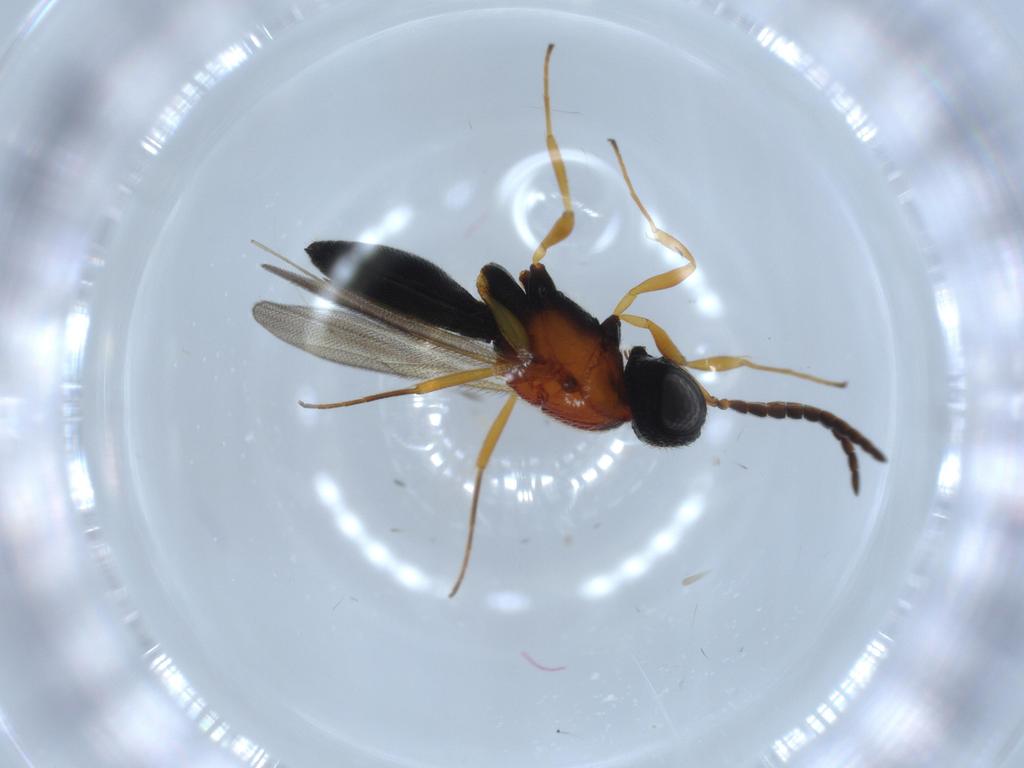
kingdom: Animalia
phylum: Arthropoda
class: Insecta
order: Hymenoptera
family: Scelionidae
